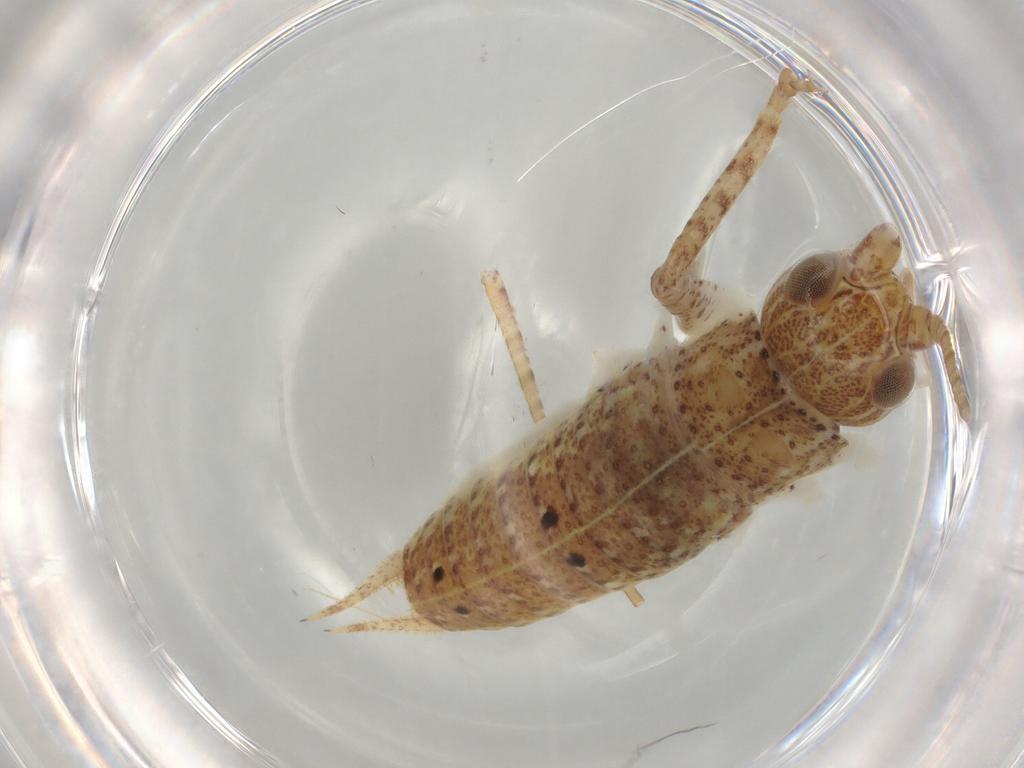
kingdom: Animalia
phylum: Arthropoda
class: Insecta
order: Orthoptera
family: Gryllidae
